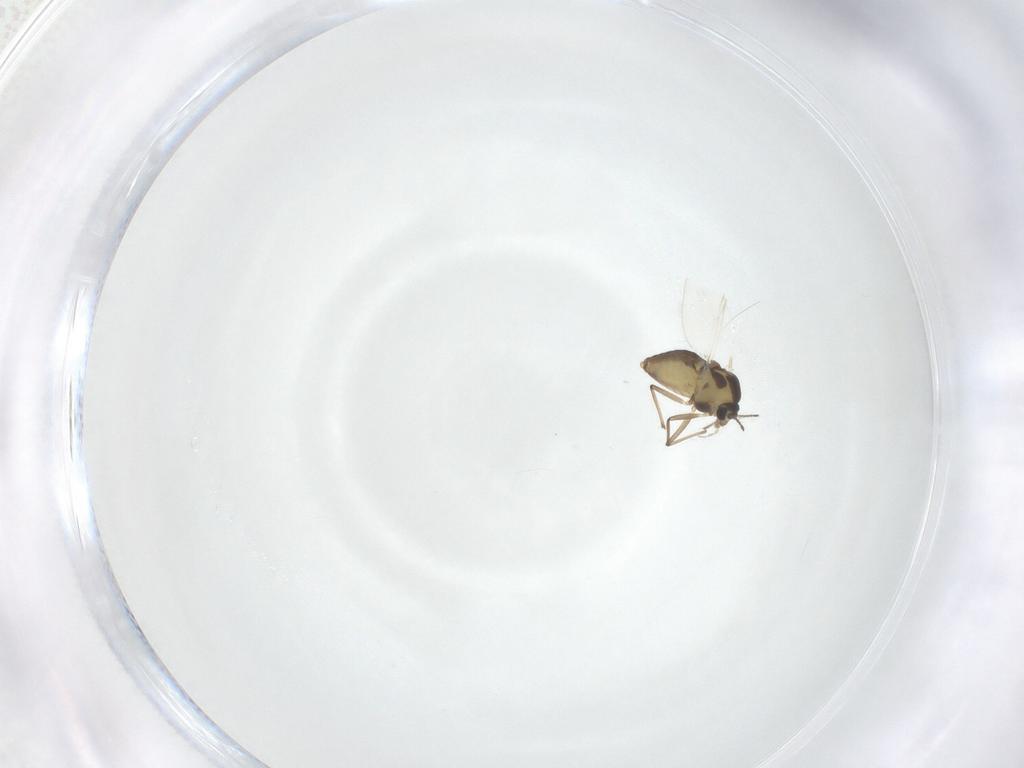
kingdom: Animalia
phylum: Arthropoda
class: Insecta
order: Diptera
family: Chironomidae
